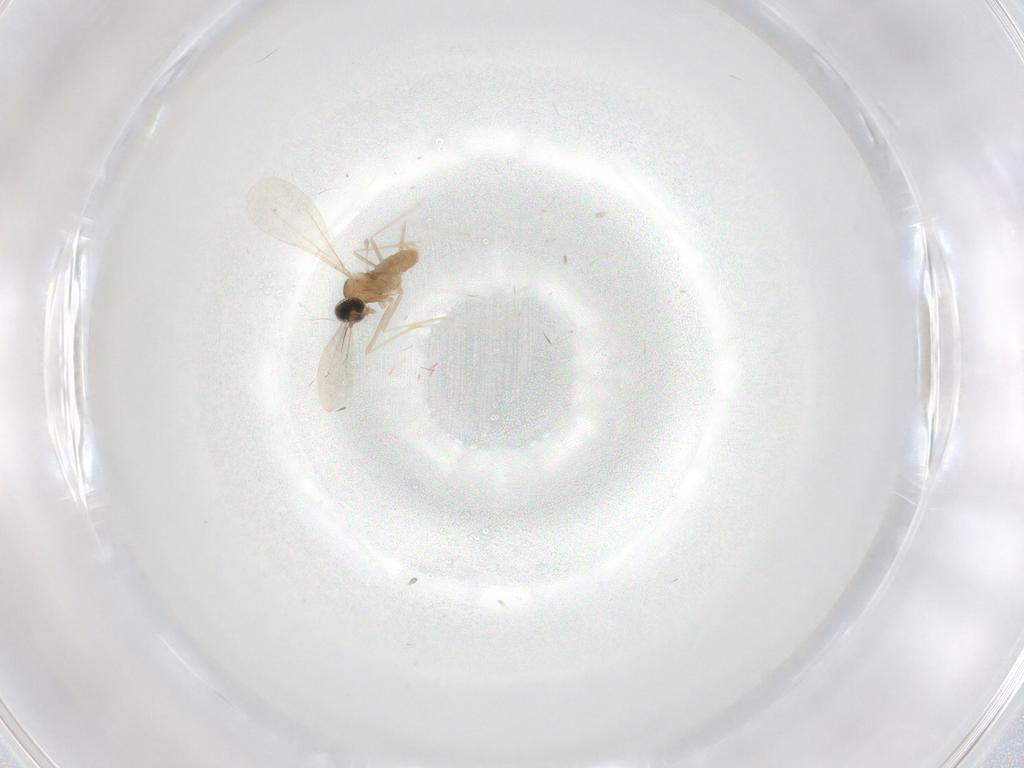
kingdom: Animalia
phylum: Arthropoda
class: Insecta
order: Diptera
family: Cecidomyiidae
